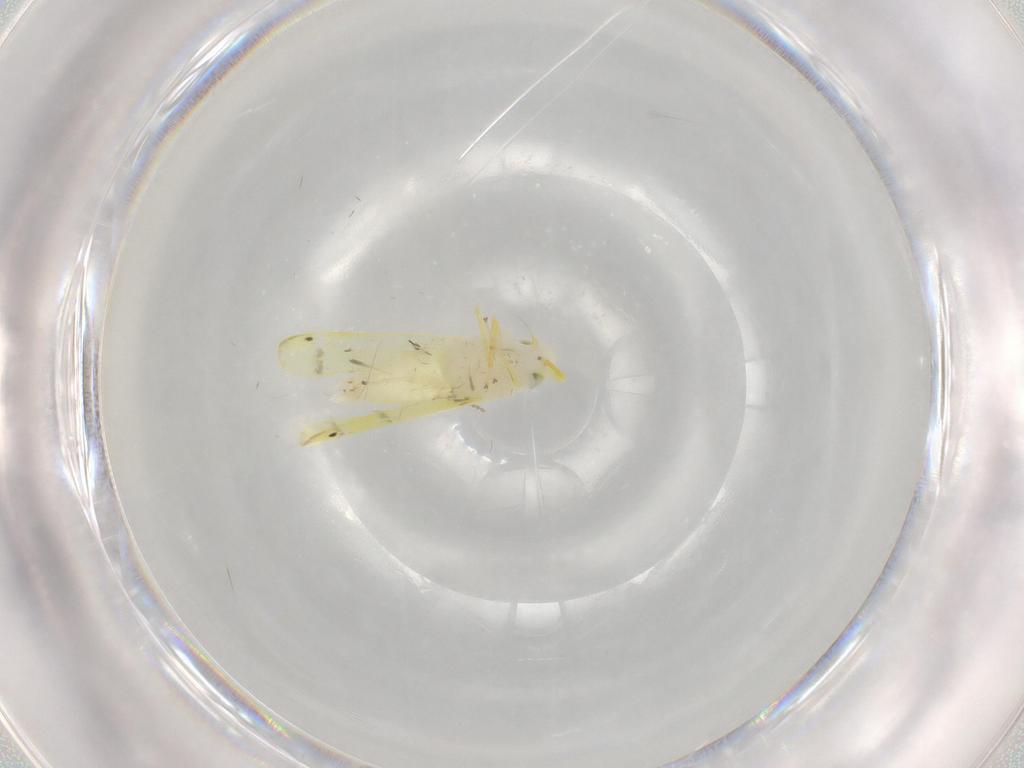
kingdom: Animalia
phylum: Arthropoda
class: Insecta
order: Hemiptera
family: Cicadellidae
